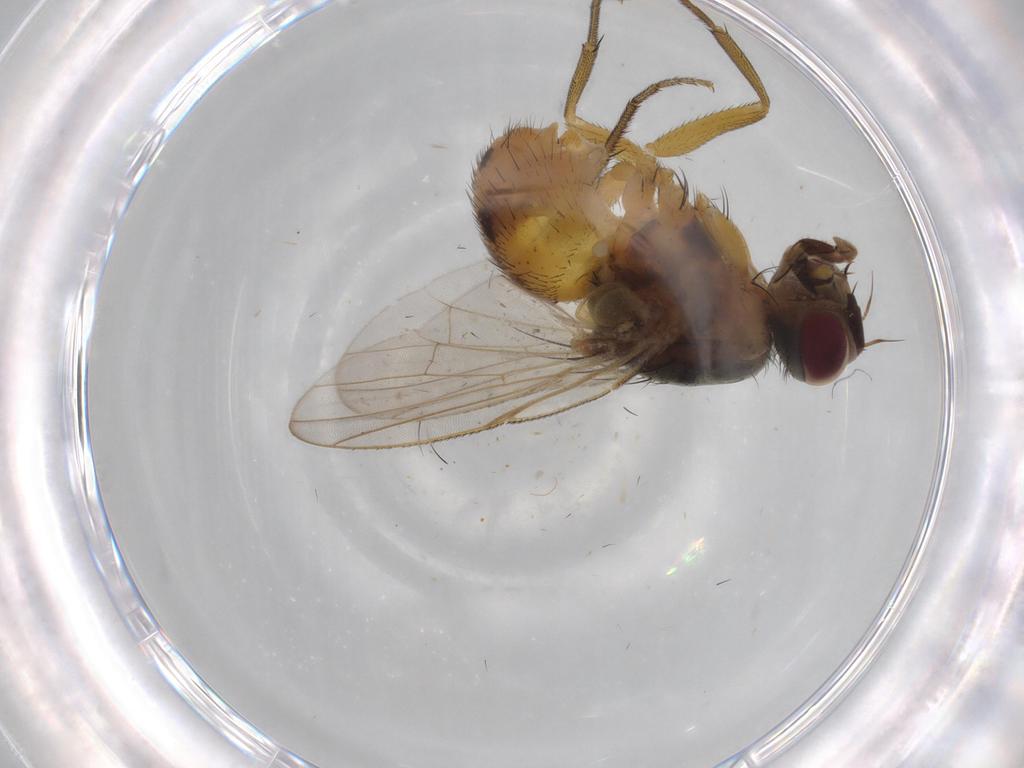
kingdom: Animalia
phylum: Arthropoda
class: Insecta
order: Diptera
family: Muscidae
